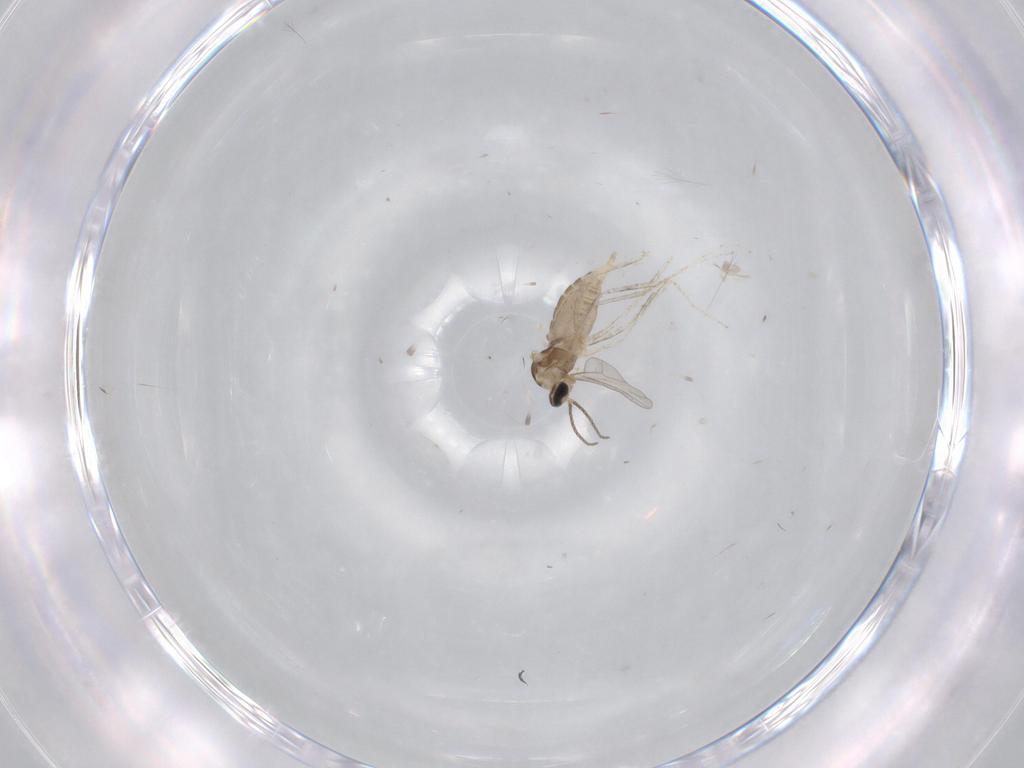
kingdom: Animalia
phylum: Arthropoda
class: Insecta
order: Diptera
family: Cecidomyiidae
